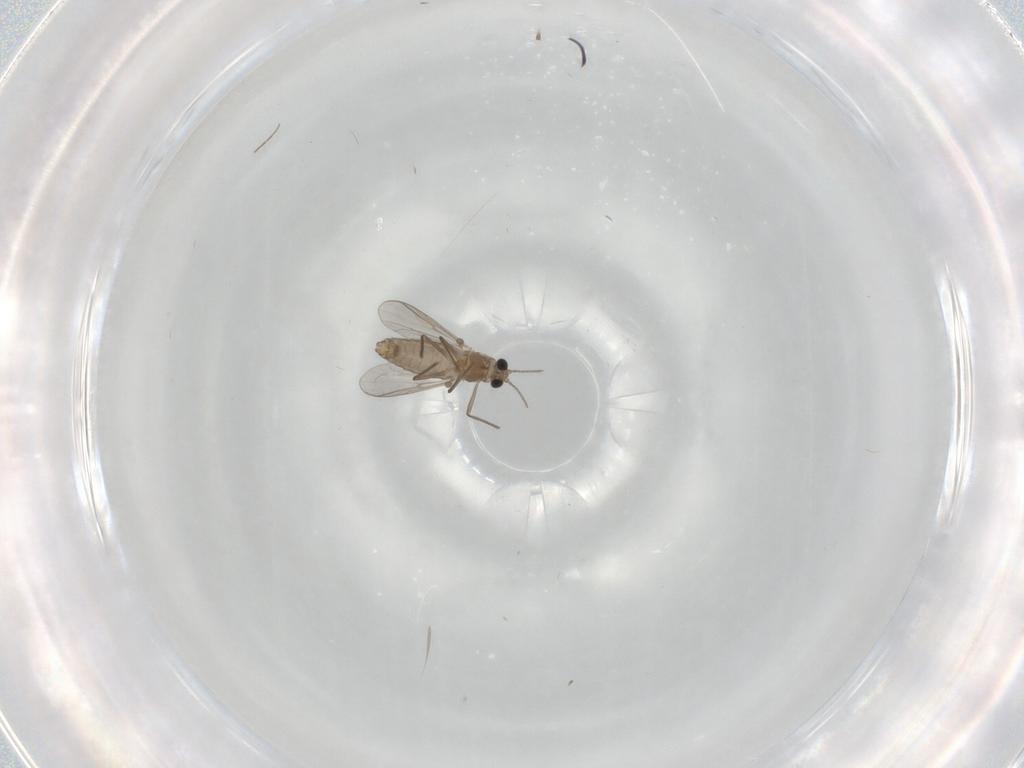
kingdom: Animalia
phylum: Arthropoda
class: Insecta
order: Diptera
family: Chironomidae
